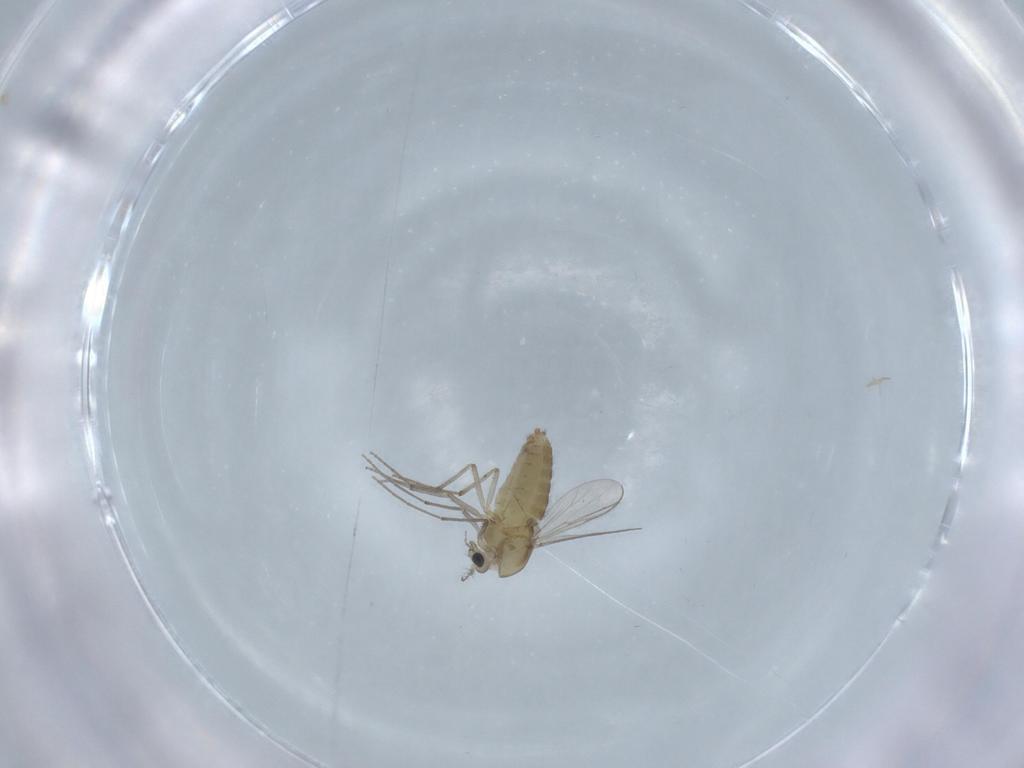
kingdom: Animalia
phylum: Arthropoda
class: Insecta
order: Diptera
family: Chironomidae
